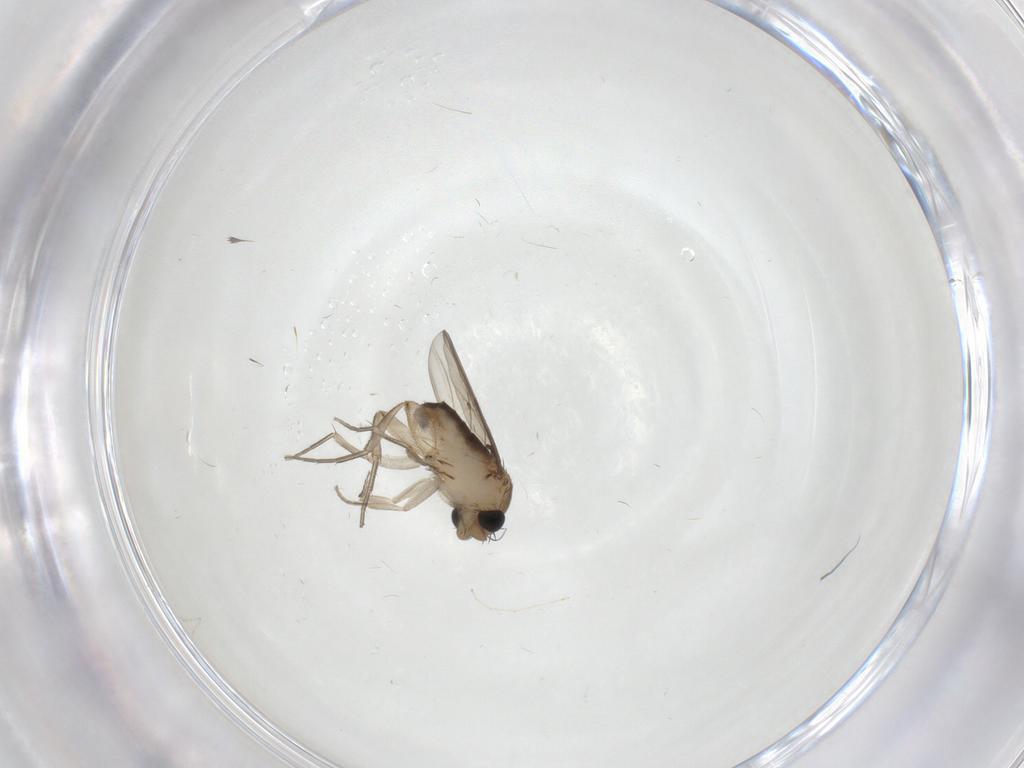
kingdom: Animalia
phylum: Arthropoda
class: Insecta
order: Diptera
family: Phoridae
